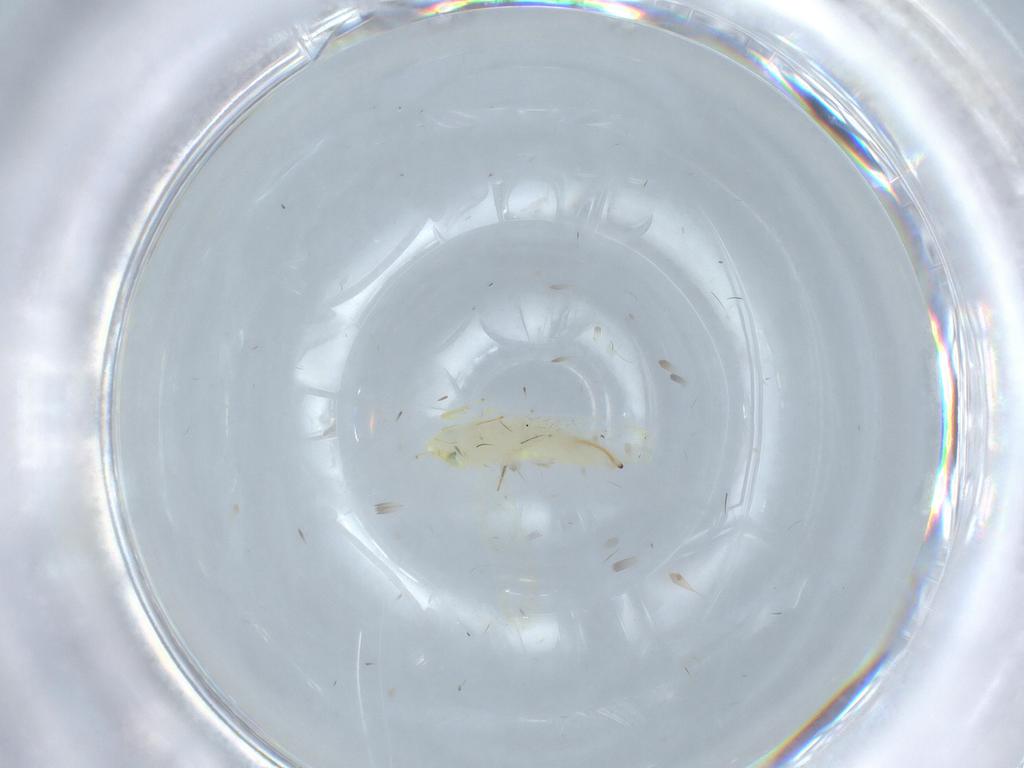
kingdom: Animalia
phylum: Arthropoda
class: Insecta
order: Hemiptera
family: Cicadellidae
